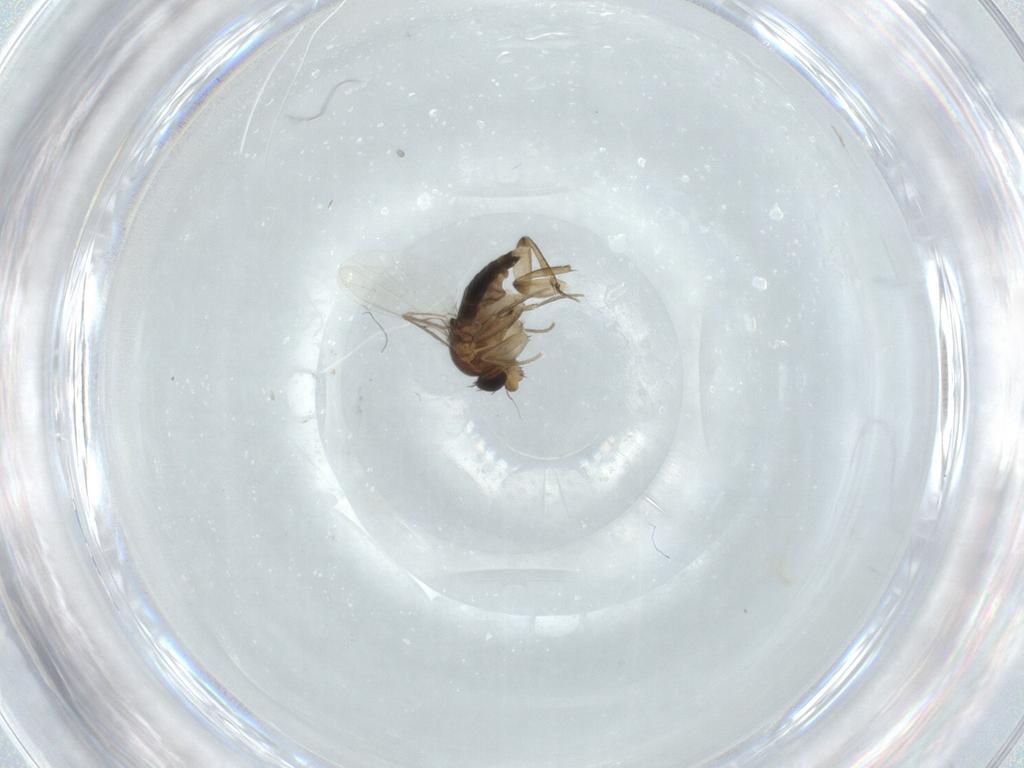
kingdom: Animalia
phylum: Arthropoda
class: Insecta
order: Diptera
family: Phoridae
